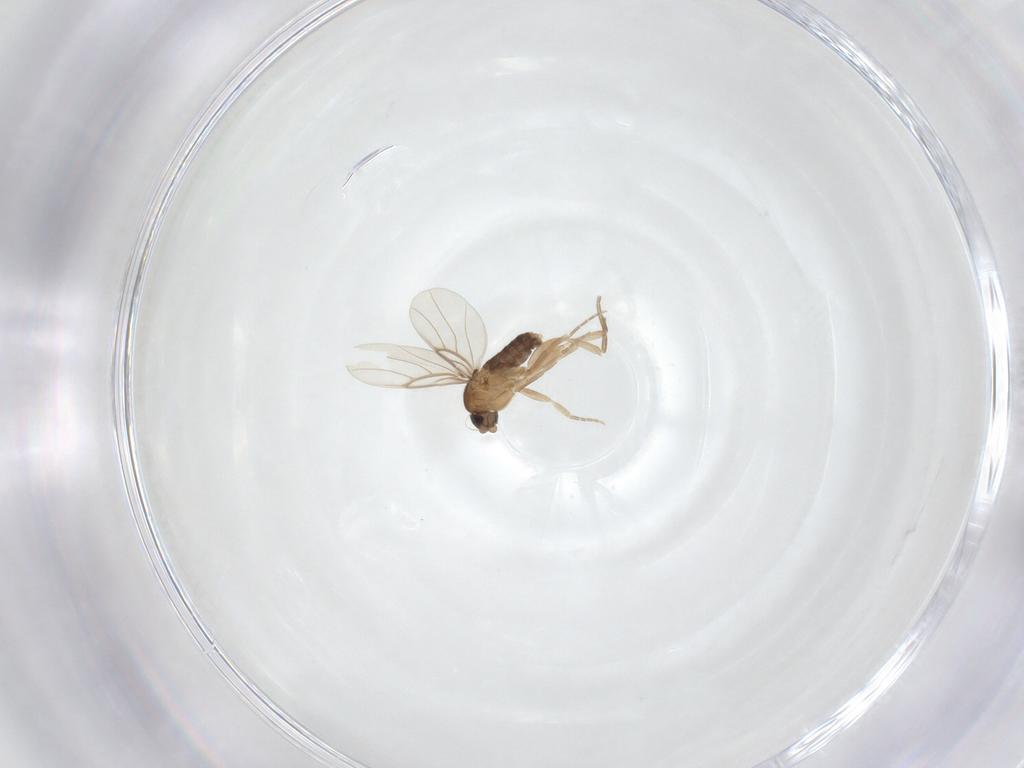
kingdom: Animalia
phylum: Arthropoda
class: Insecta
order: Diptera
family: Phoridae
